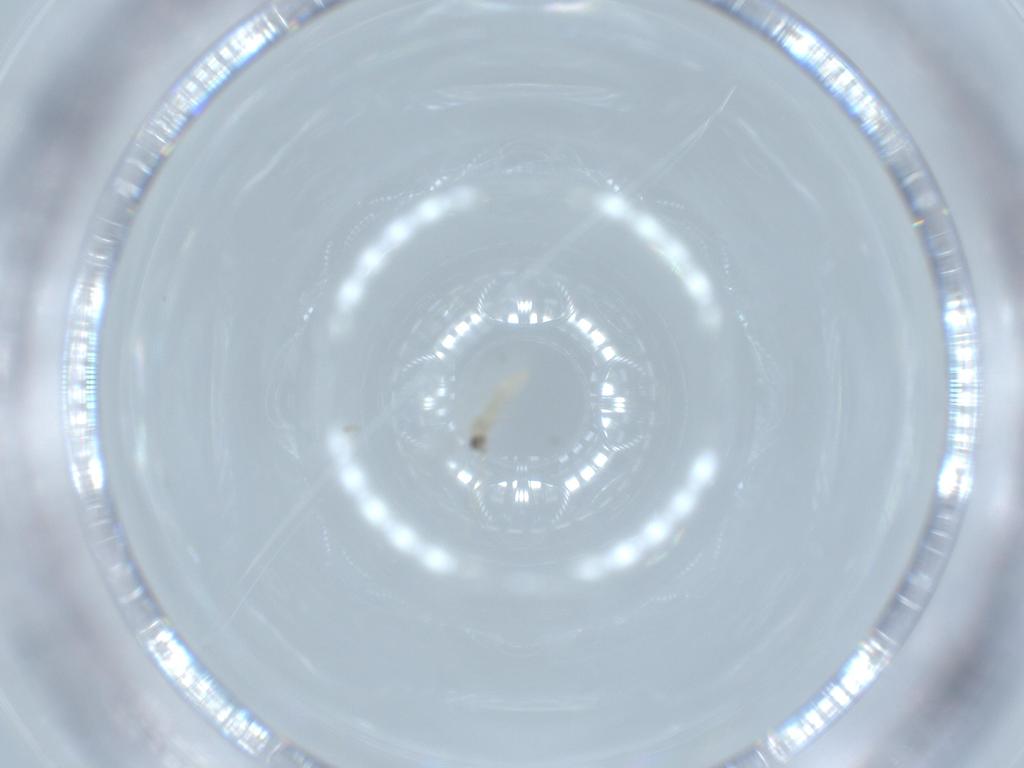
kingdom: Animalia
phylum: Arthropoda
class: Insecta
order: Diptera
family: Cecidomyiidae
